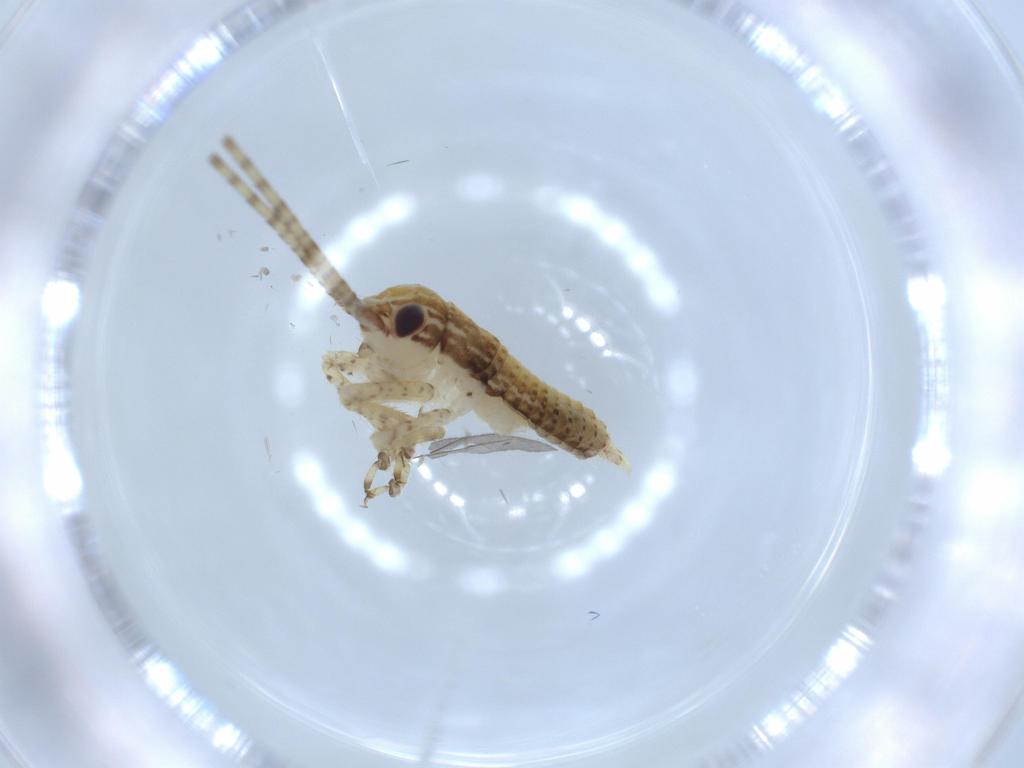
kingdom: Animalia
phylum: Arthropoda
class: Insecta
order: Orthoptera
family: Gryllidae
